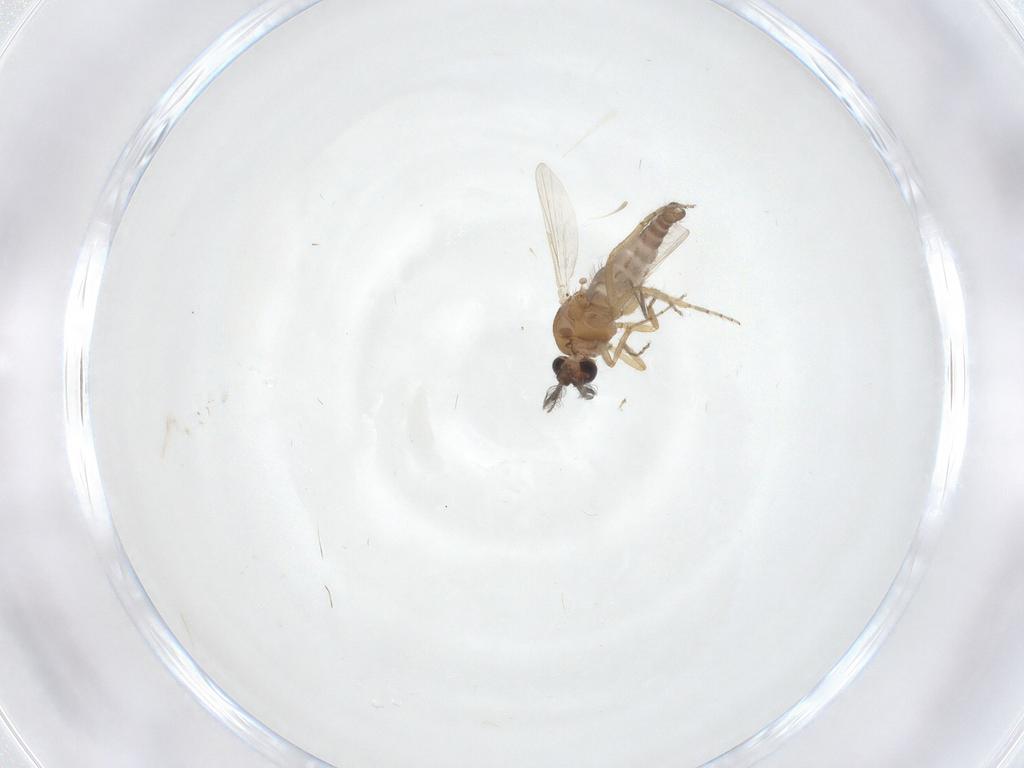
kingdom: Animalia
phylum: Arthropoda
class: Insecta
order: Diptera
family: Ceratopogonidae
